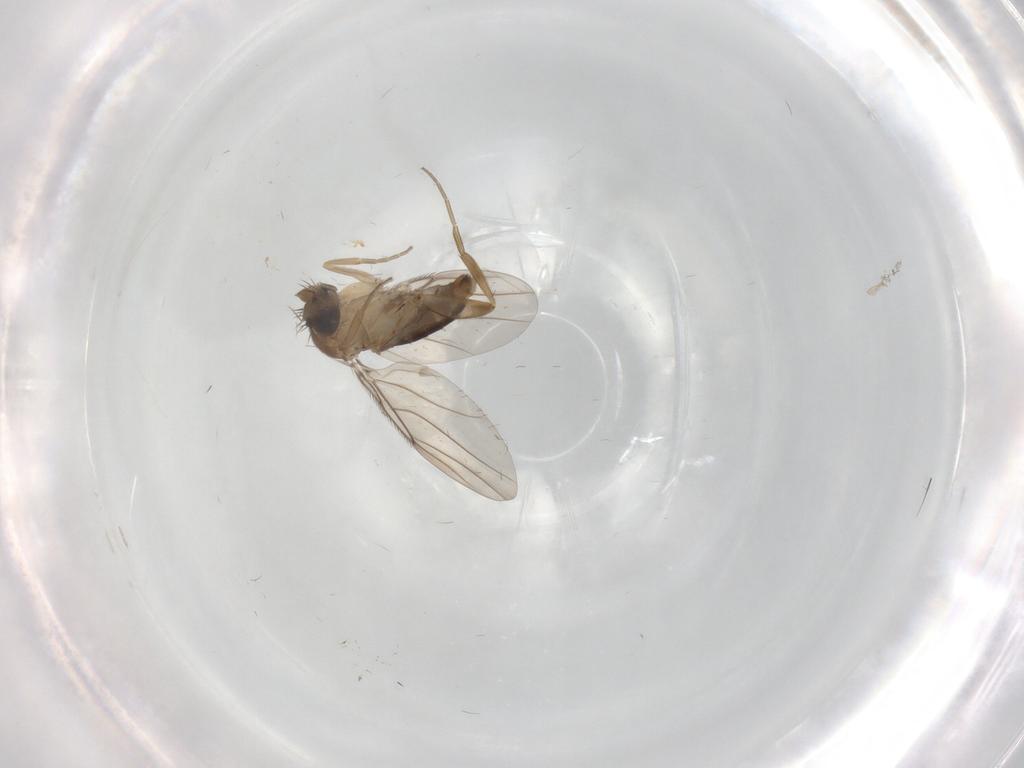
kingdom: Animalia
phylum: Arthropoda
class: Insecta
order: Diptera
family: Phoridae
